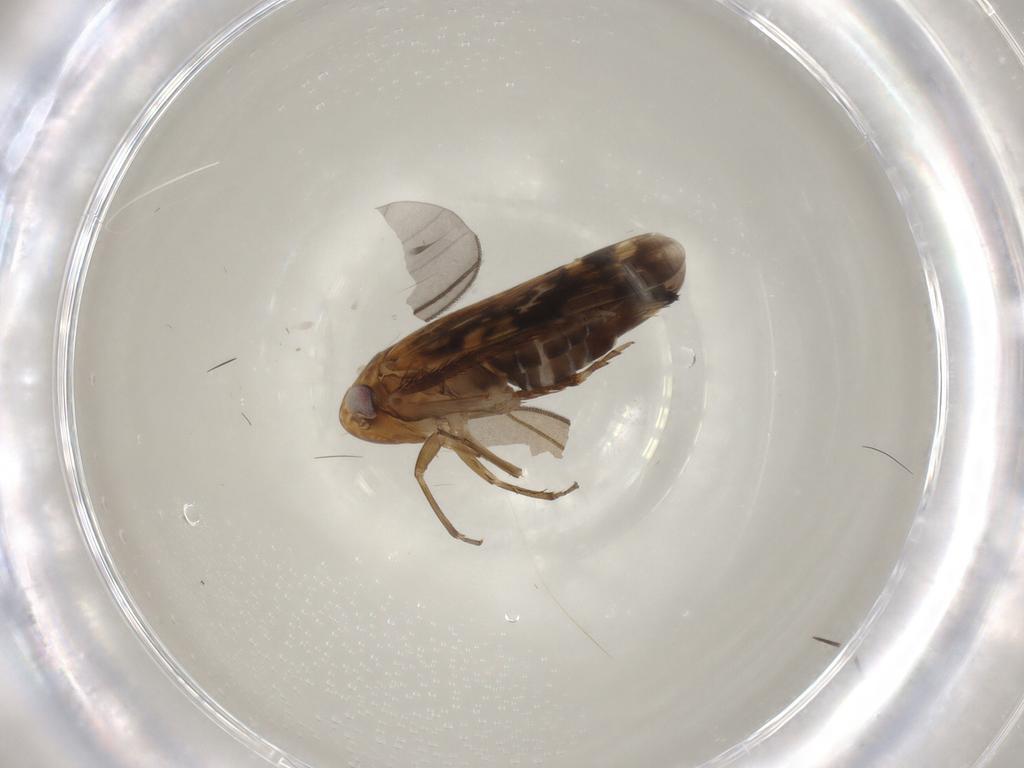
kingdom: Animalia
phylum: Arthropoda
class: Insecta
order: Hemiptera
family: Cicadellidae
